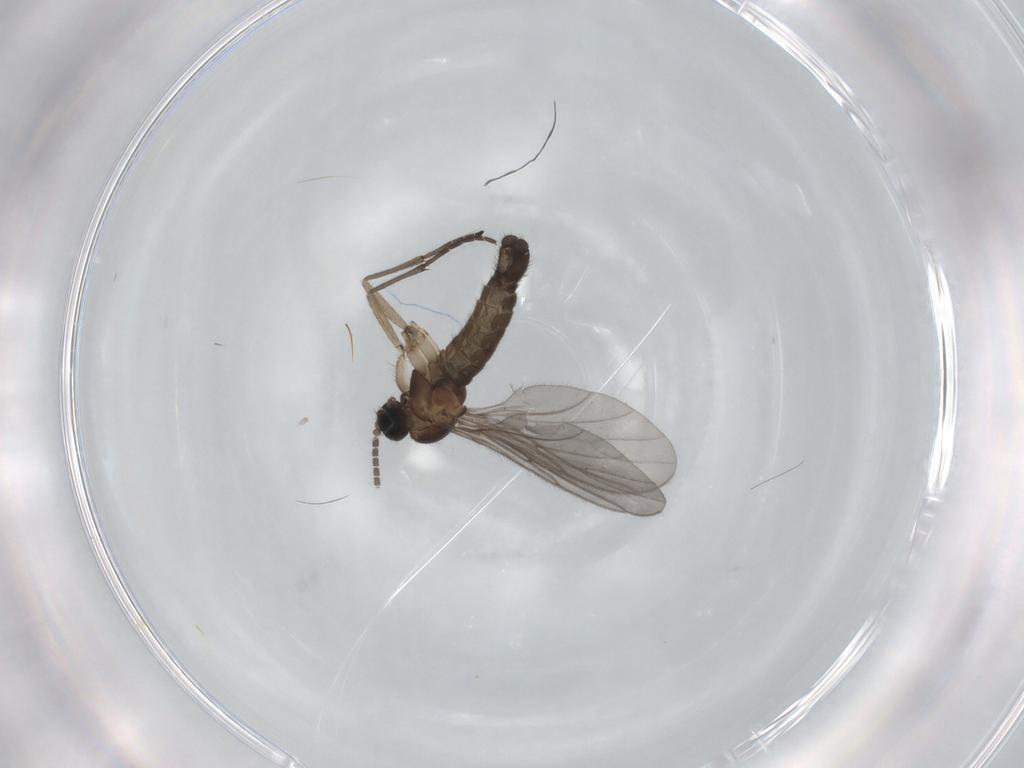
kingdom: Animalia
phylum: Arthropoda
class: Insecta
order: Diptera
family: Sciaridae
